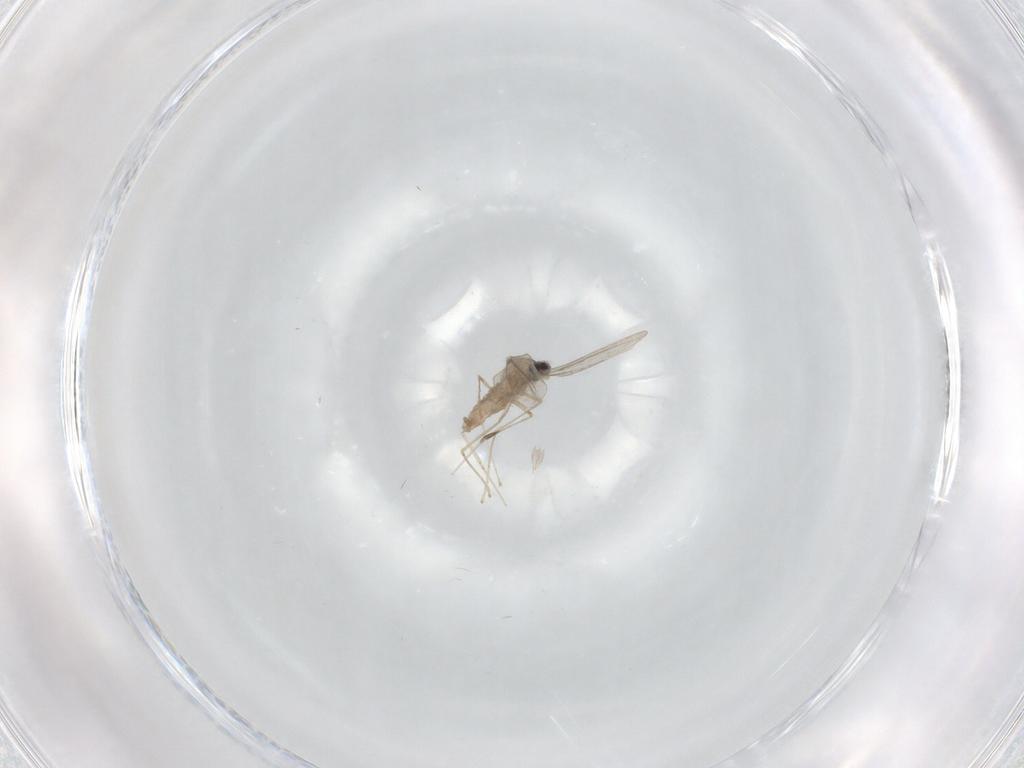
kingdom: Animalia
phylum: Arthropoda
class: Insecta
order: Diptera
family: Cecidomyiidae
